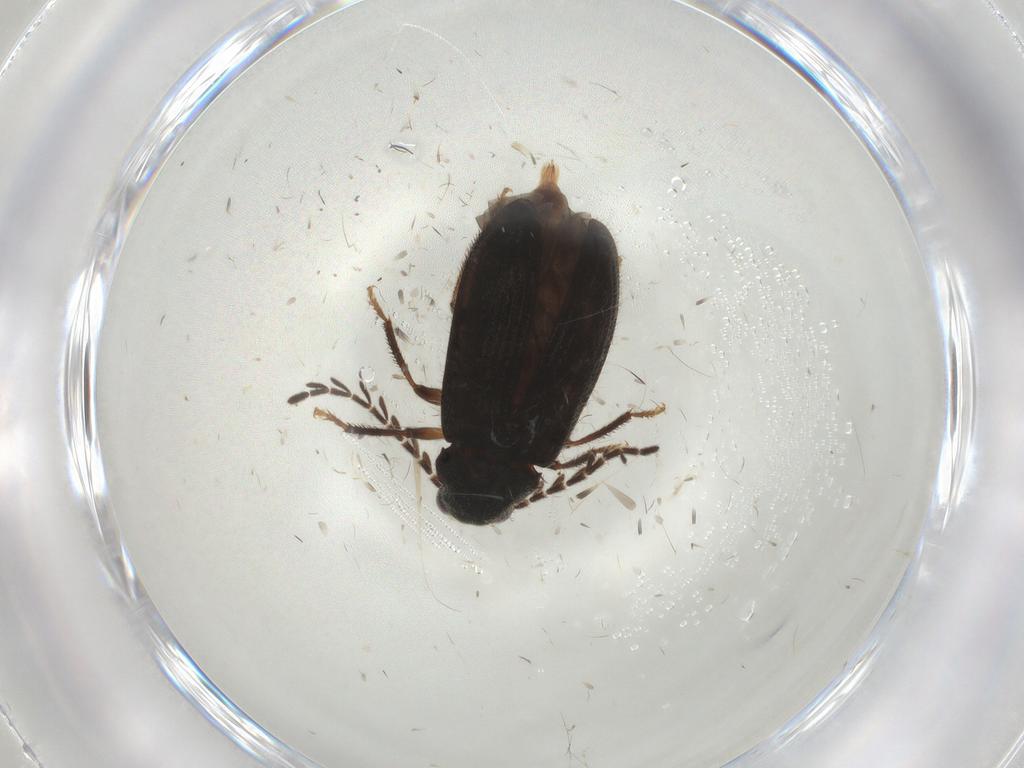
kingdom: Animalia
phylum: Arthropoda
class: Insecta
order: Coleoptera
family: Ptilodactylidae
